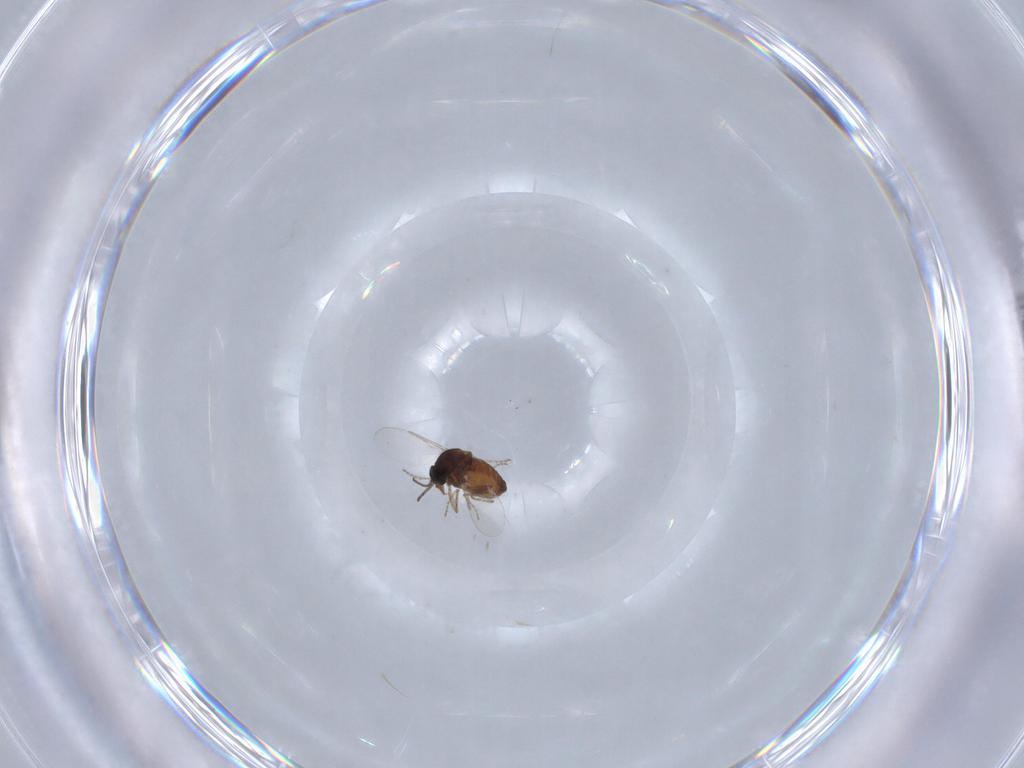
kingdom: Animalia
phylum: Arthropoda
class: Insecta
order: Diptera
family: Ceratopogonidae
